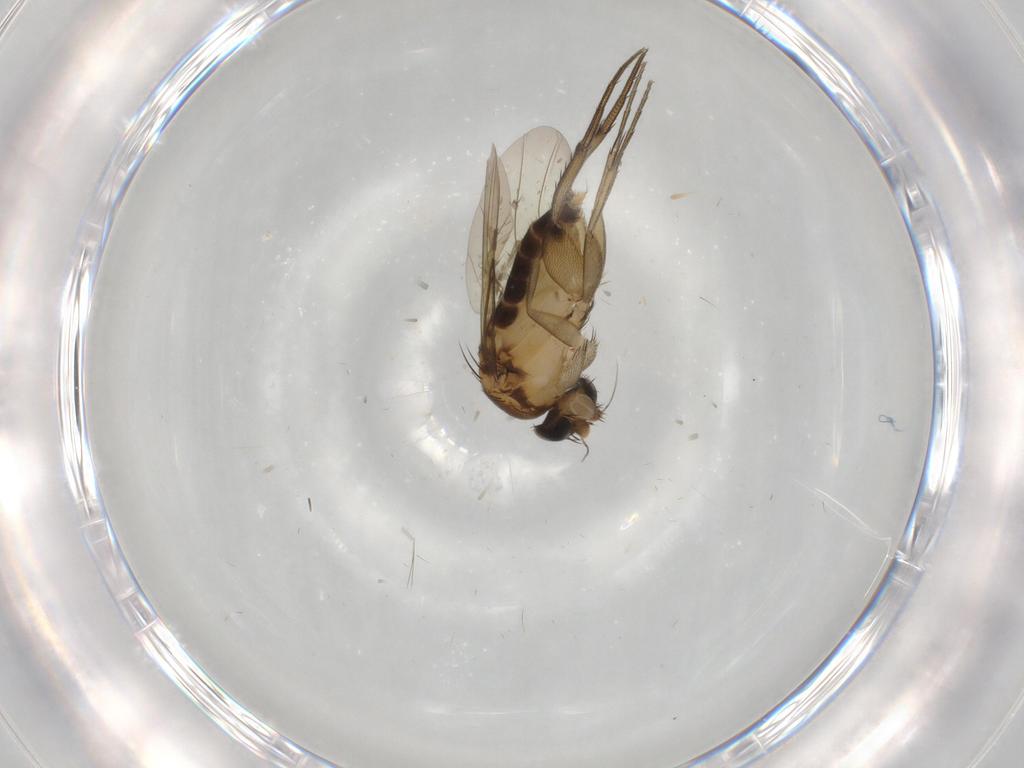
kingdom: Animalia
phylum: Arthropoda
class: Insecta
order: Diptera
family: Phoridae
